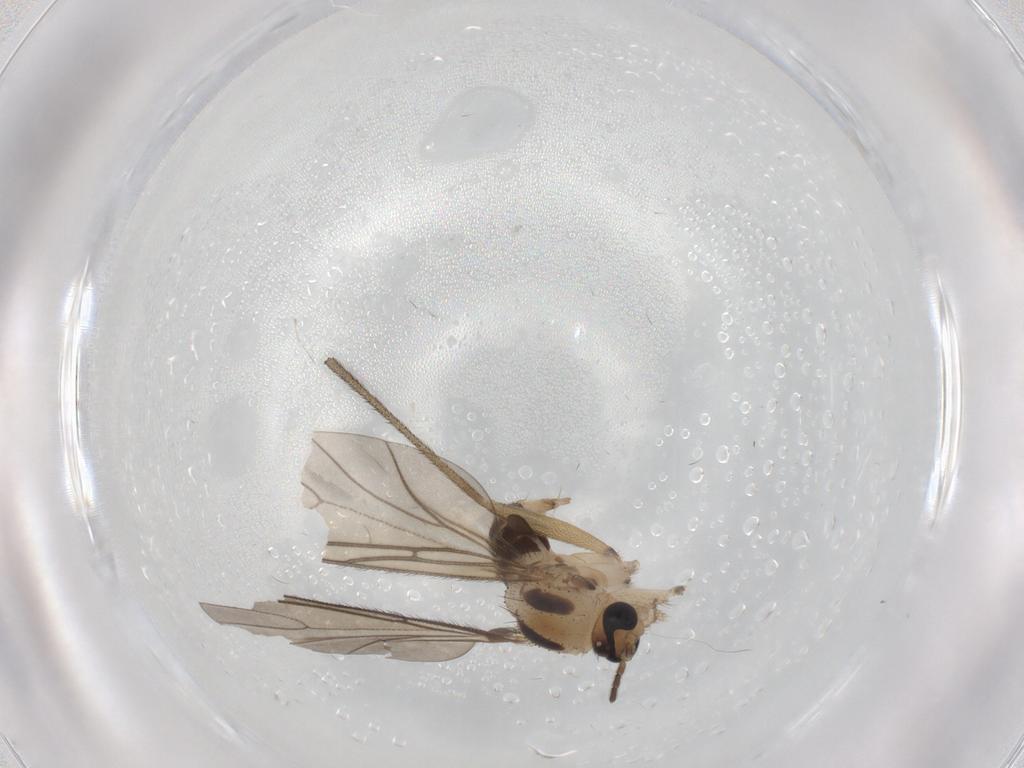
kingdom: Animalia
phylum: Arthropoda
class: Insecta
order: Diptera
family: Sciaridae
